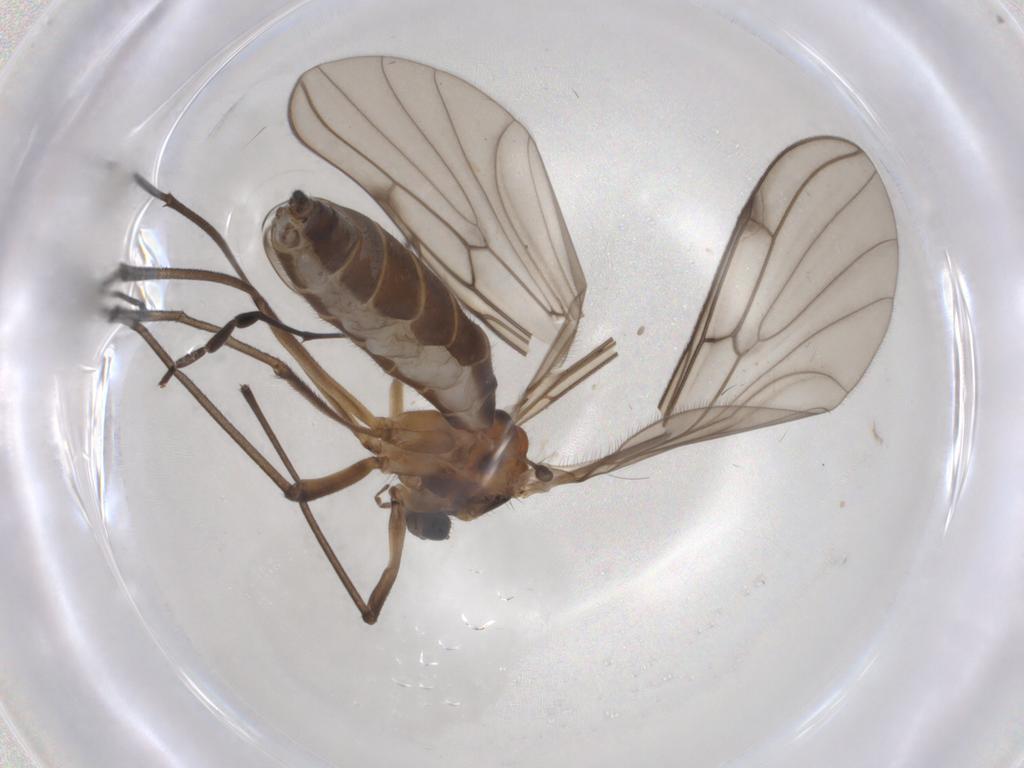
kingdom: Animalia
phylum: Arthropoda
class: Insecta
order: Diptera
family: Bolitophilidae
